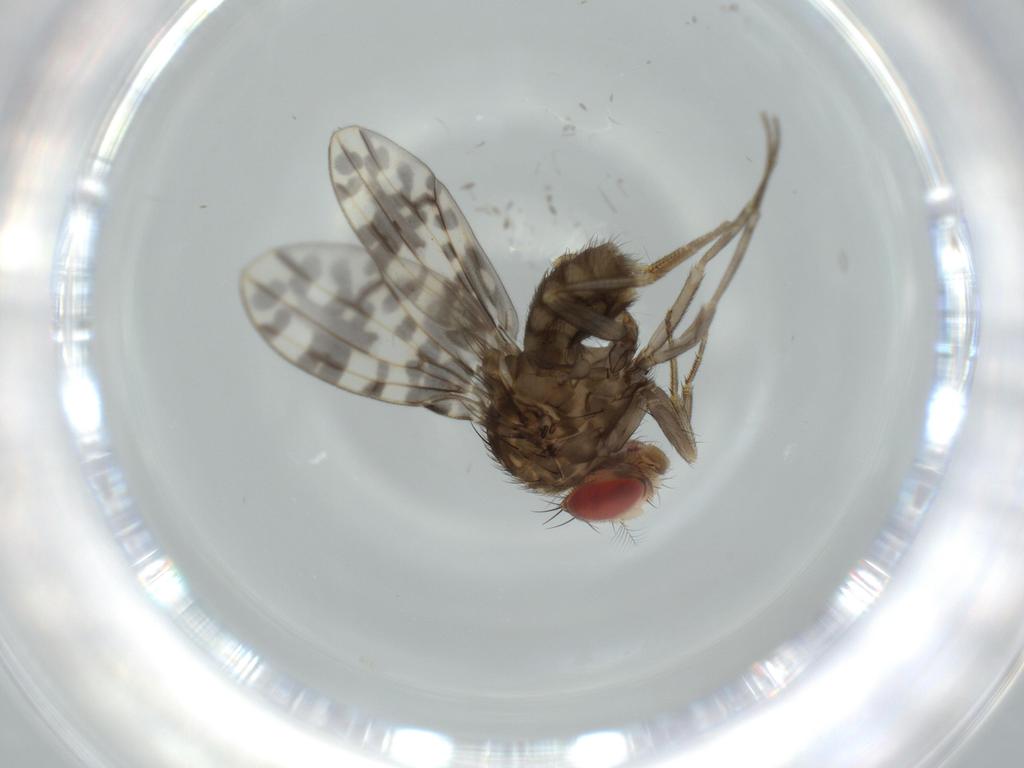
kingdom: Animalia
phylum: Arthropoda
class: Insecta
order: Diptera
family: Drosophilidae
